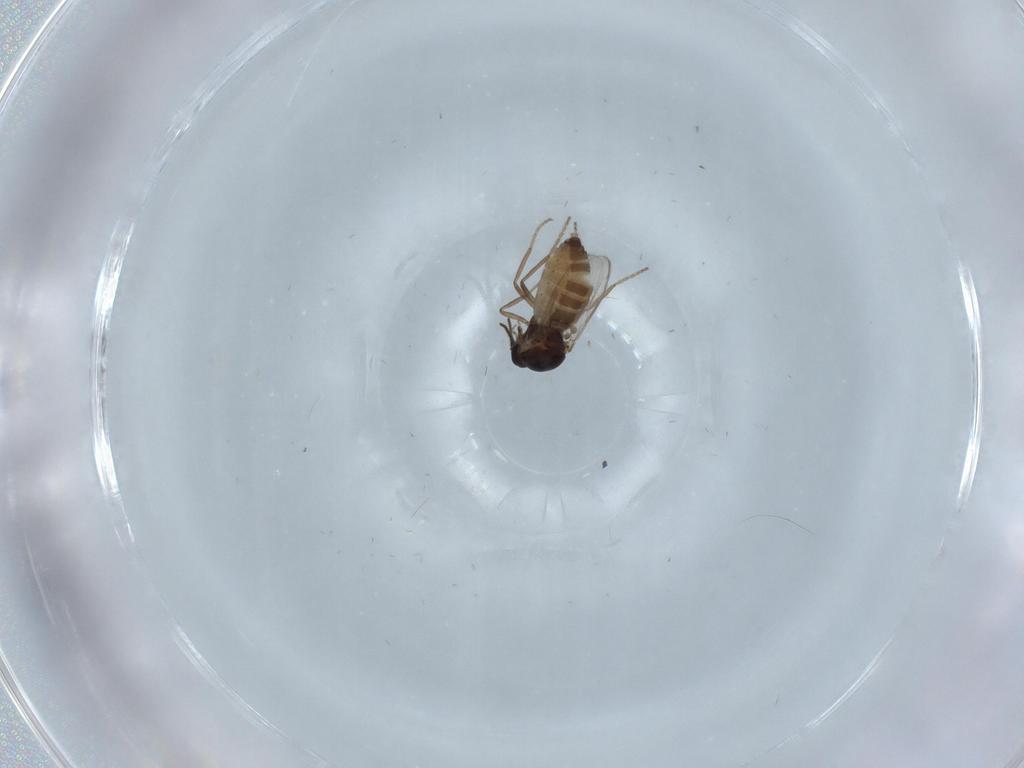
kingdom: Animalia
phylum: Arthropoda
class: Insecta
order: Diptera
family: Ceratopogonidae
